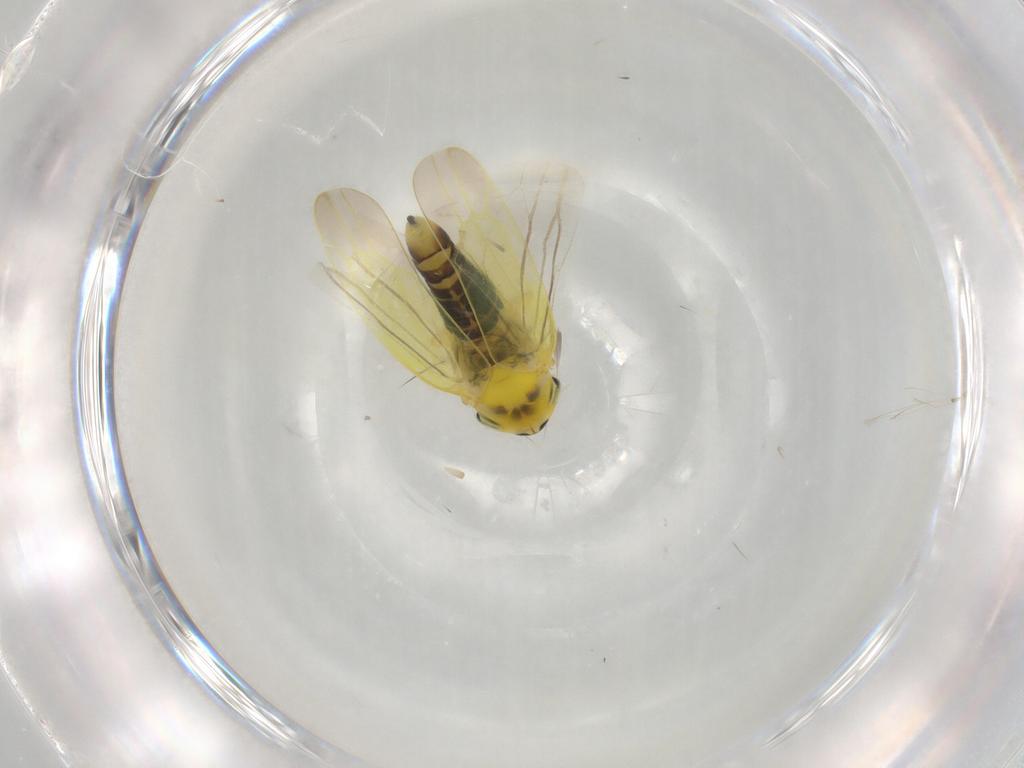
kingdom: Animalia
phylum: Arthropoda
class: Insecta
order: Hemiptera
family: Cicadellidae
